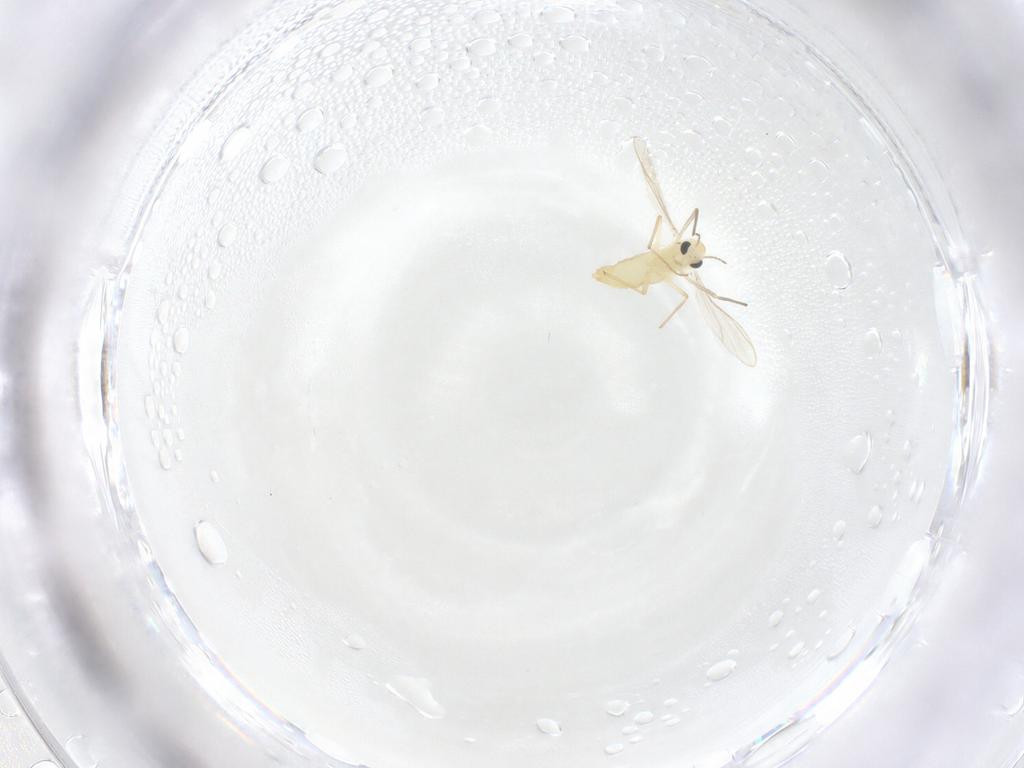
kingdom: Animalia
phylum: Arthropoda
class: Insecta
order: Diptera
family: Chironomidae
